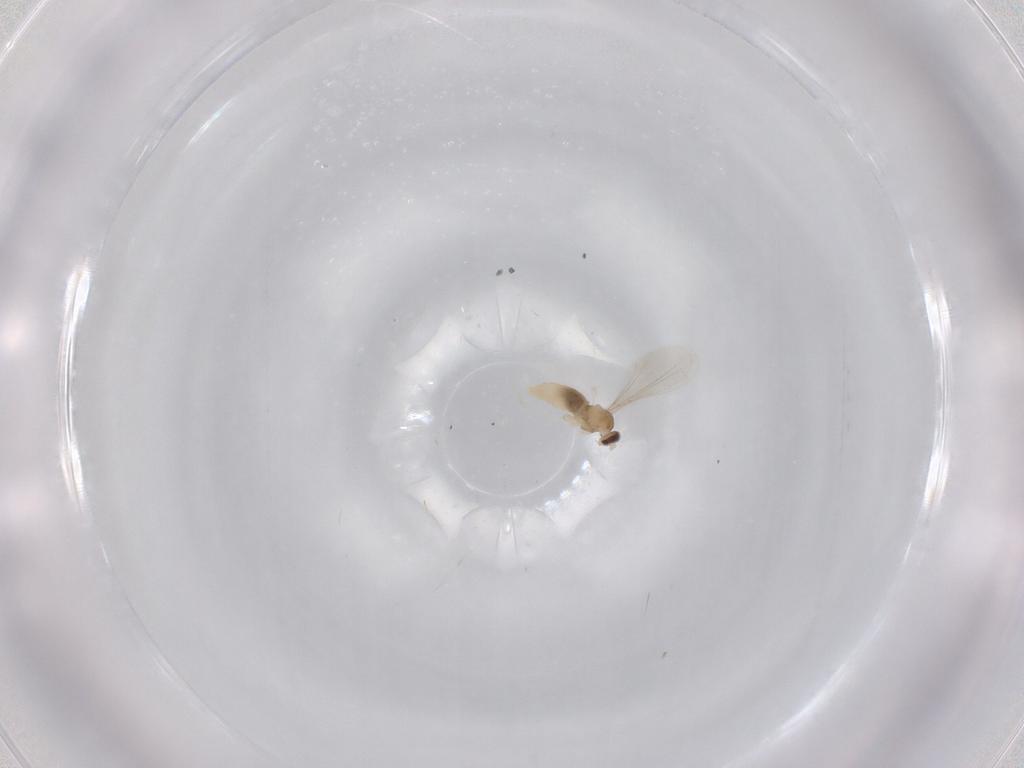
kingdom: Animalia
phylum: Arthropoda
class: Insecta
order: Diptera
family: Cecidomyiidae
